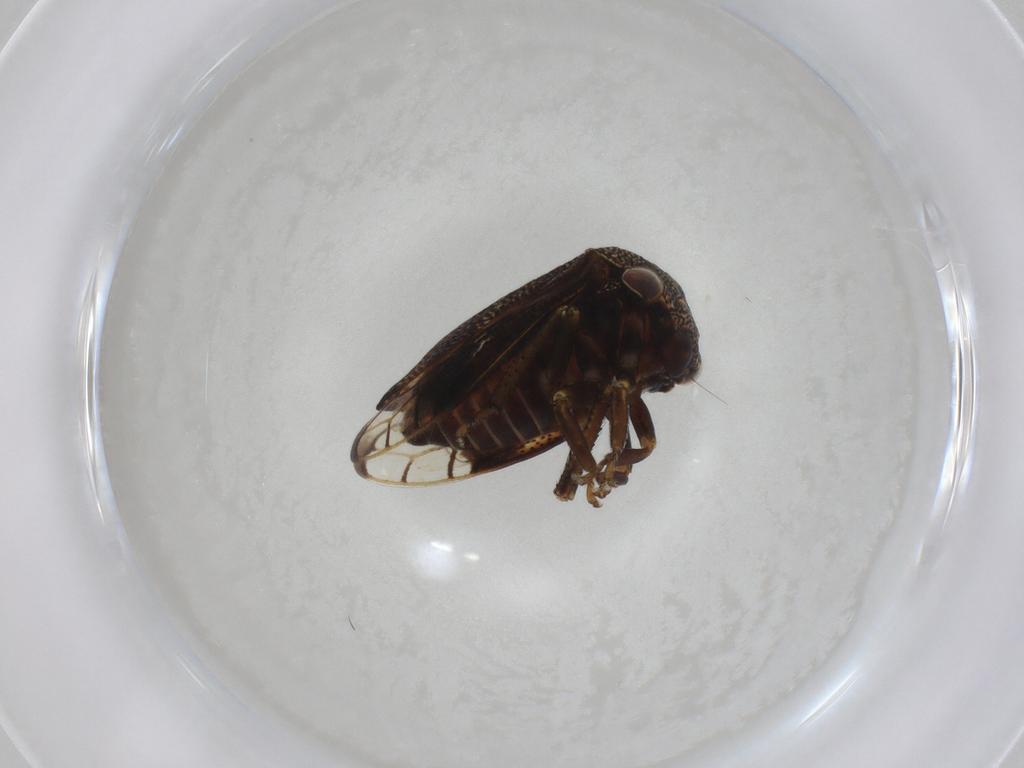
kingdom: Animalia
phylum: Arthropoda
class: Insecta
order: Hemiptera
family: Membracidae
